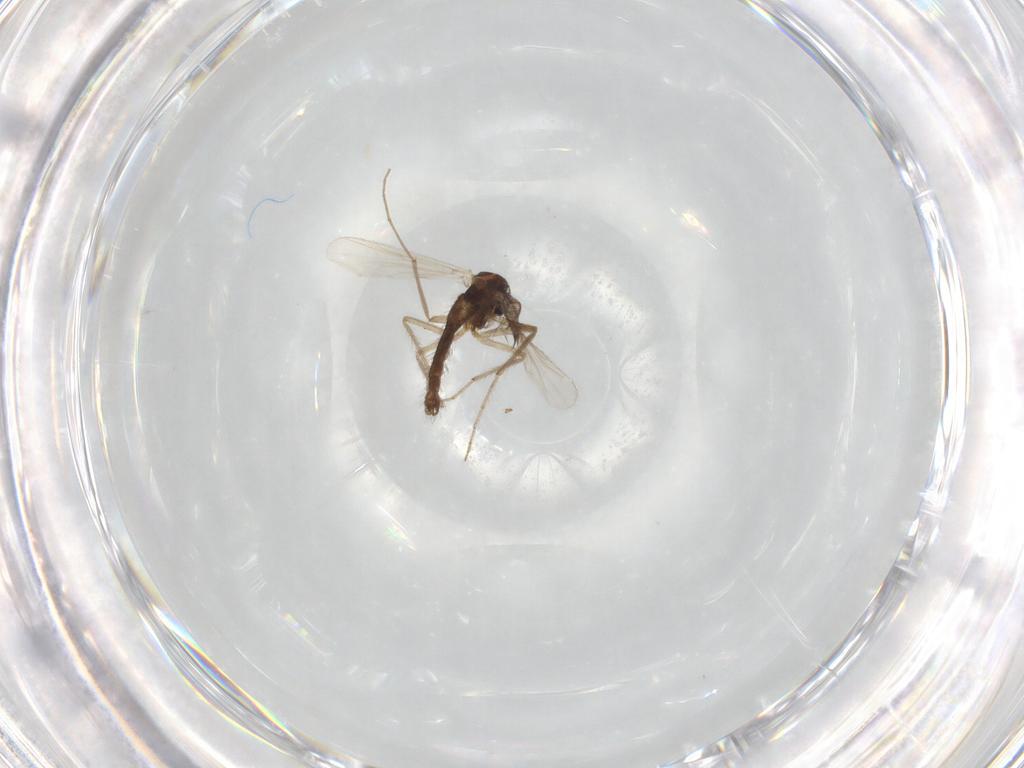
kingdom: Animalia
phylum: Arthropoda
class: Insecta
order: Diptera
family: Chironomidae
